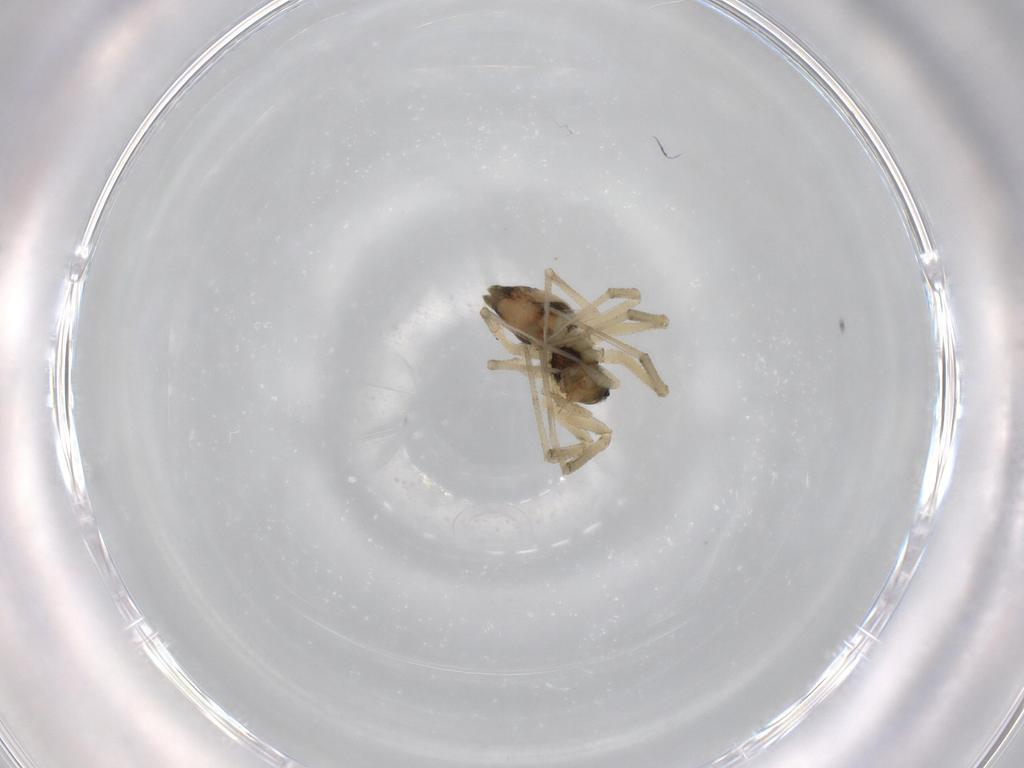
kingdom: Animalia
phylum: Arthropoda
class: Arachnida
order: Araneae
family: Linyphiidae
